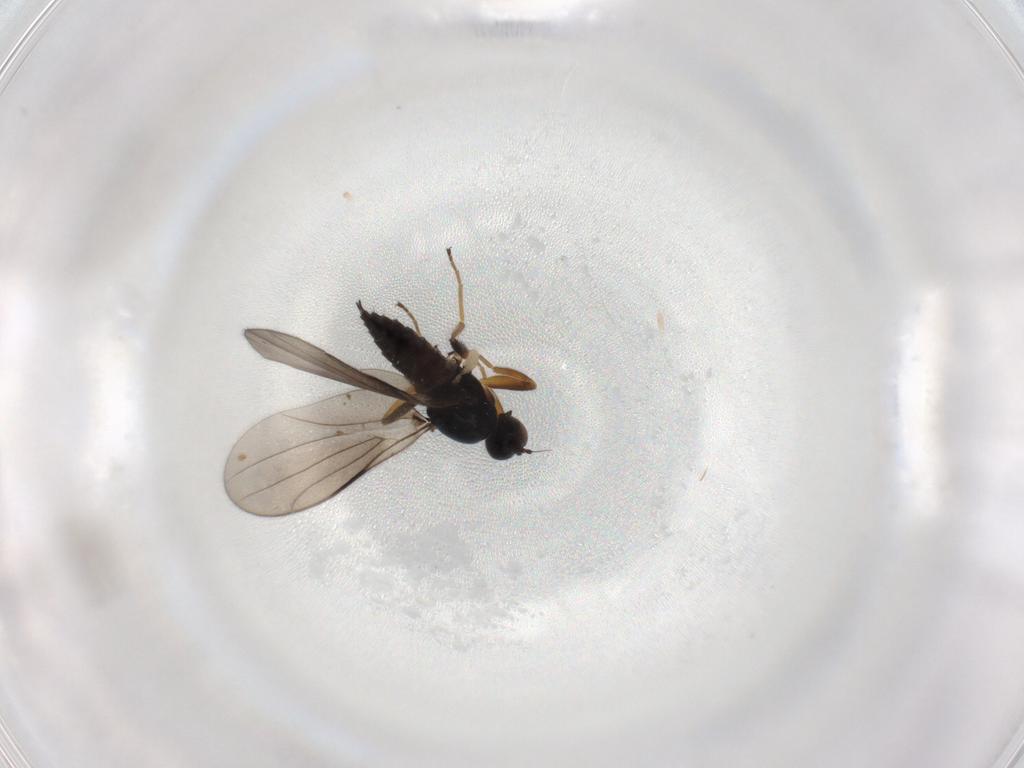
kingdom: Animalia
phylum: Arthropoda
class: Insecta
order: Diptera
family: Hybotidae
